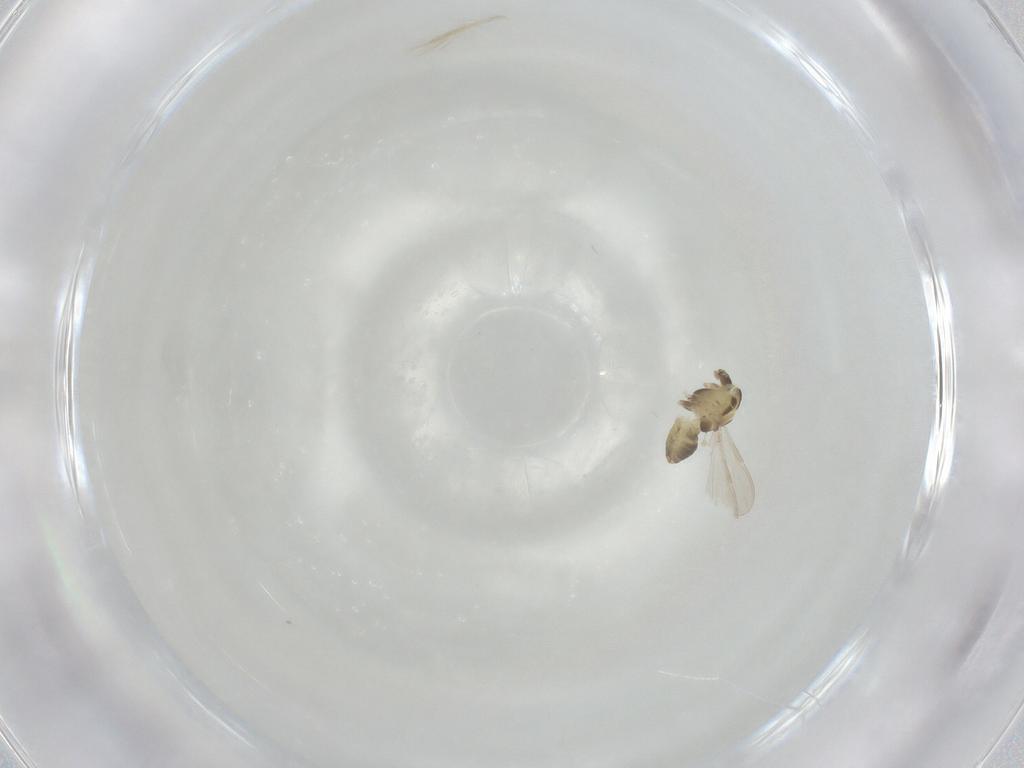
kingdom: Animalia
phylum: Arthropoda
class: Insecta
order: Diptera
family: Chironomidae
